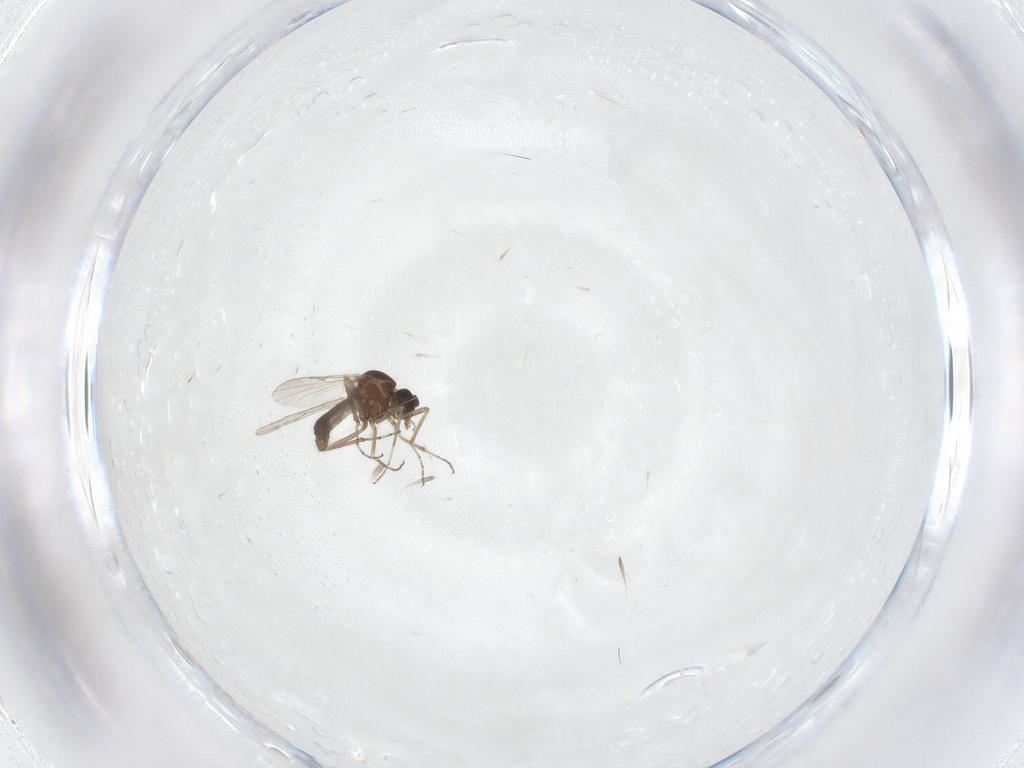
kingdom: Animalia
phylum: Arthropoda
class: Insecta
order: Diptera
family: Ceratopogonidae
